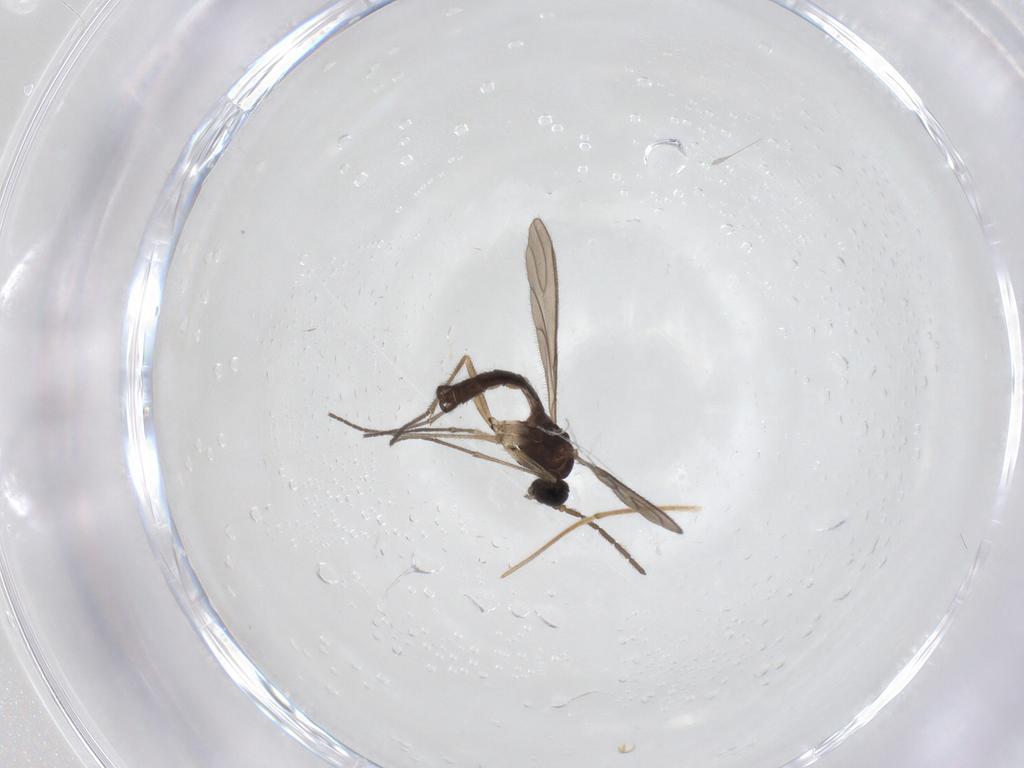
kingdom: Animalia
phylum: Arthropoda
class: Insecta
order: Diptera
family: Sciaridae
